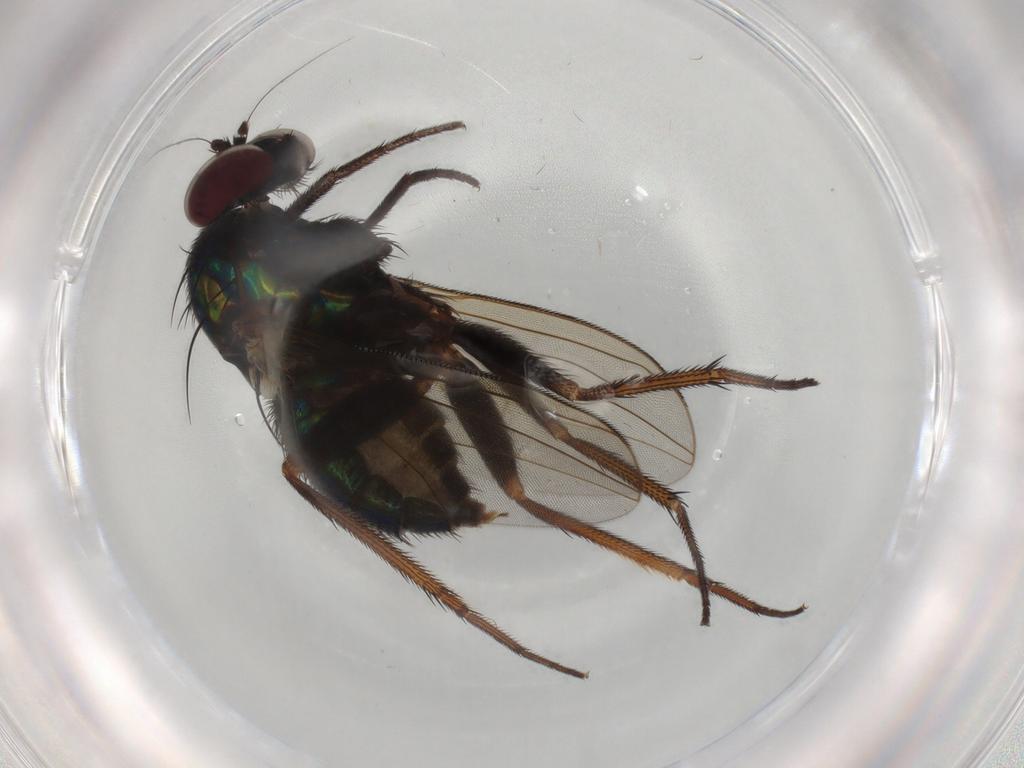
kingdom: Animalia
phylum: Arthropoda
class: Insecta
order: Diptera
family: Dolichopodidae
